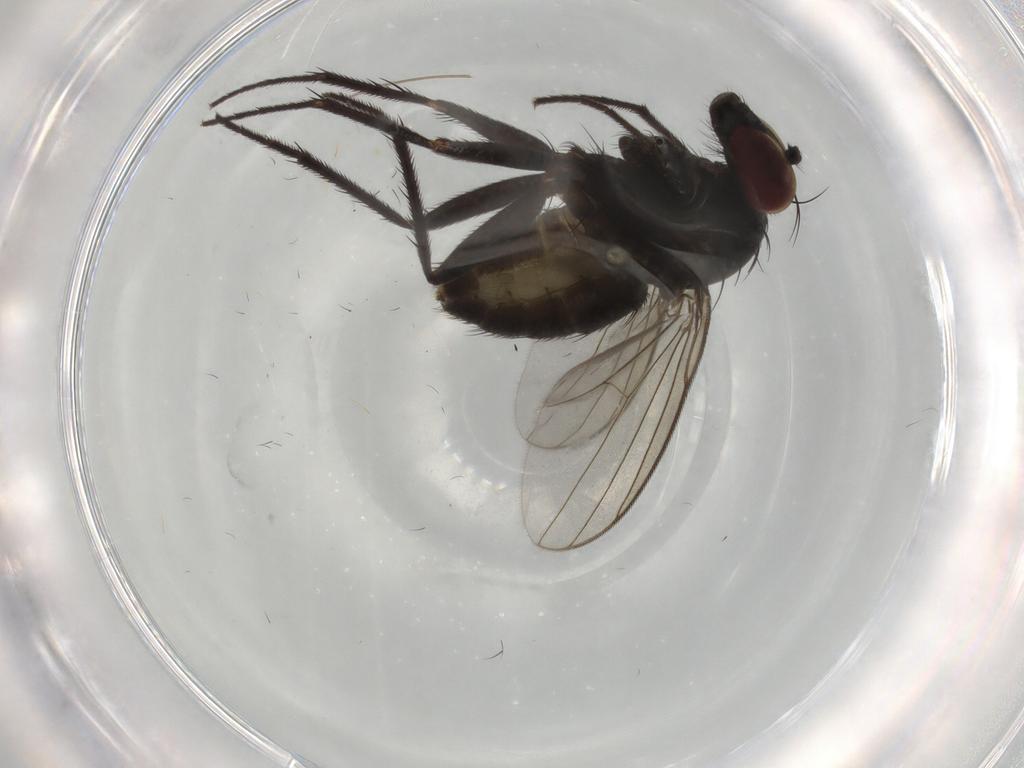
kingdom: Animalia
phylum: Arthropoda
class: Insecta
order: Diptera
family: Dolichopodidae
